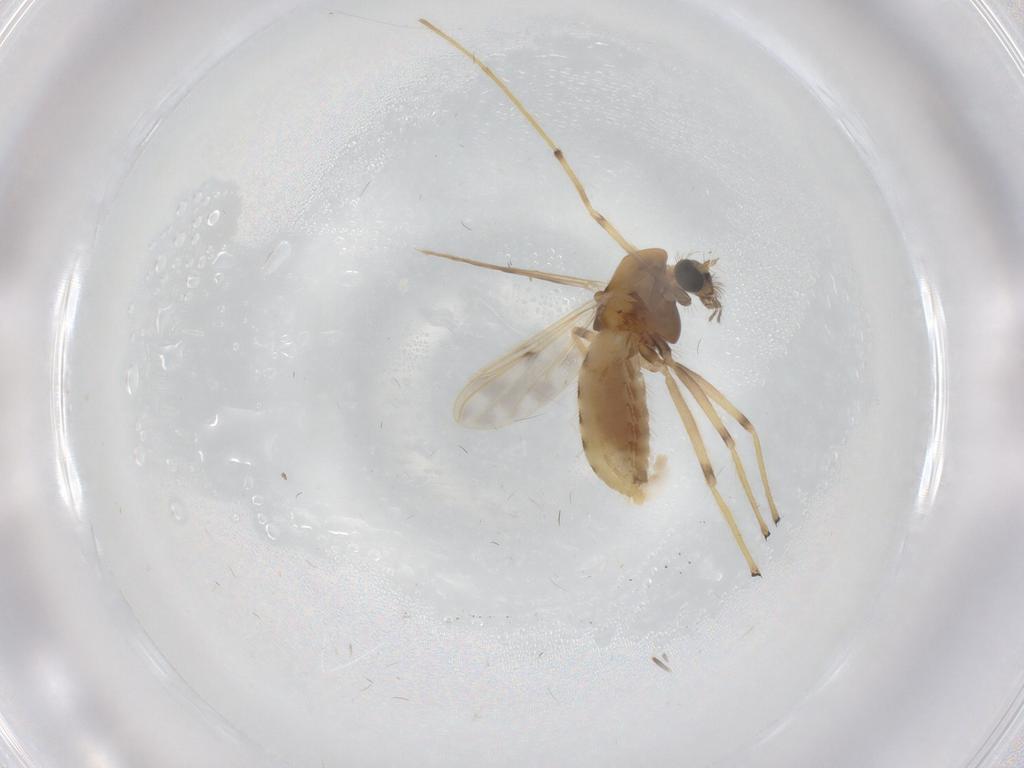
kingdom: Animalia
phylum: Arthropoda
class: Insecta
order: Diptera
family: Chironomidae
